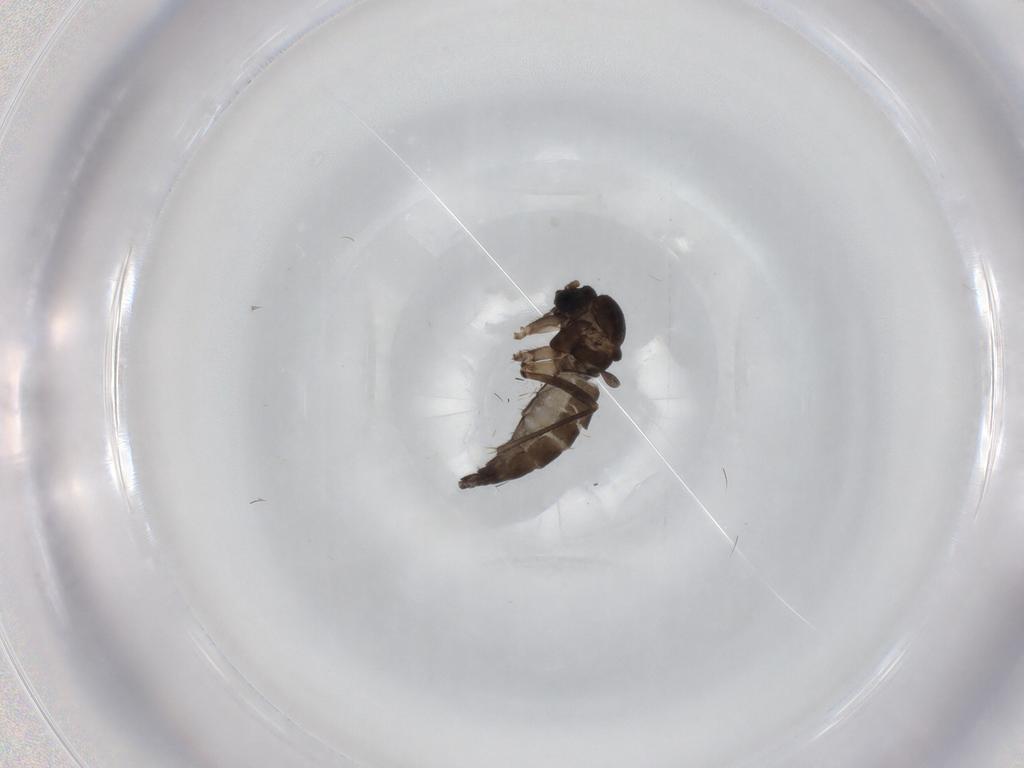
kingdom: Animalia
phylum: Arthropoda
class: Insecta
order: Diptera
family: Sciaridae
